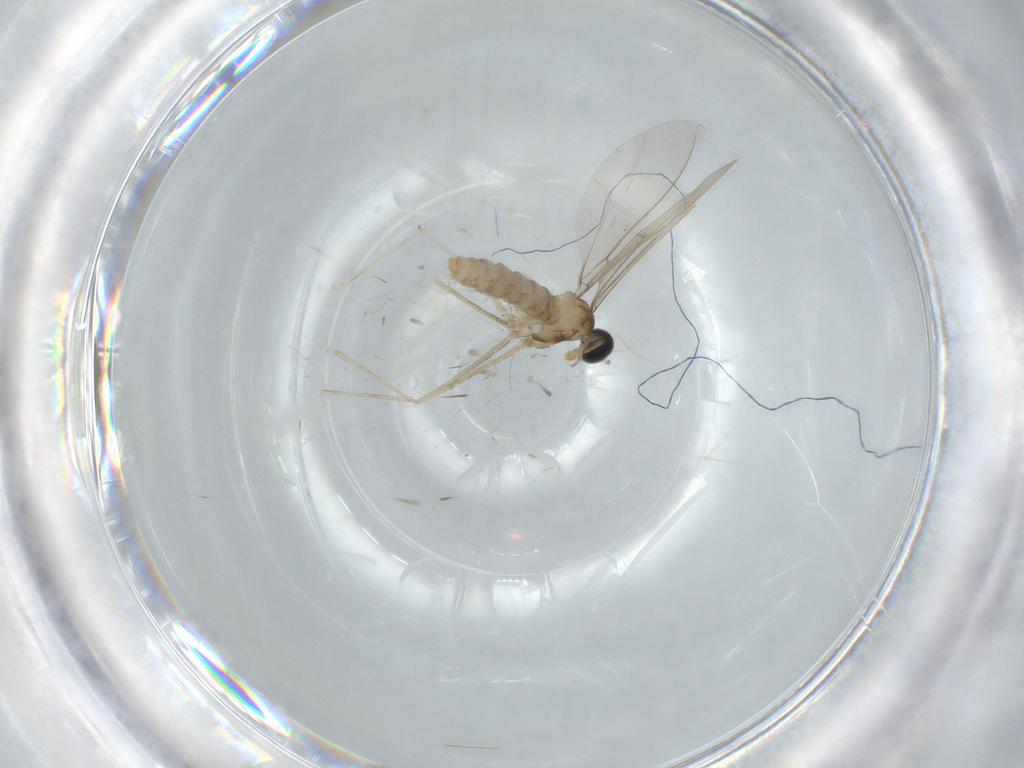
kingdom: Animalia
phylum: Arthropoda
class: Insecta
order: Diptera
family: Cecidomyiidae
